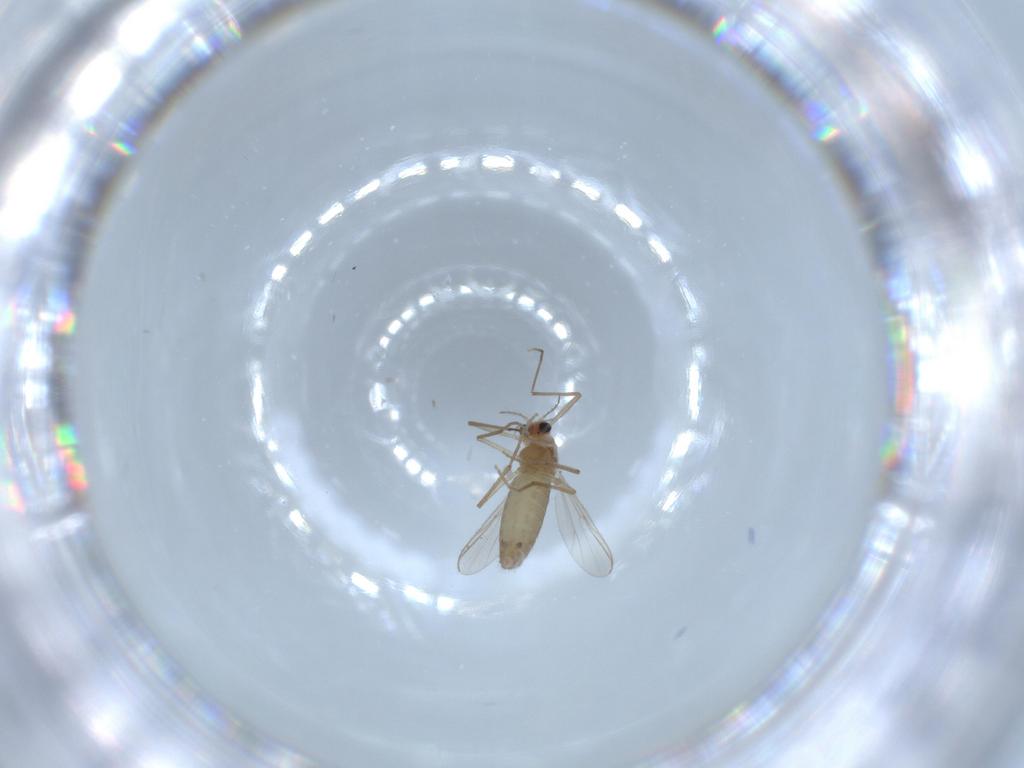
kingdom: Animalia
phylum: Arthropoda
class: Insecta
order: Diptera
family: Chironomidae
